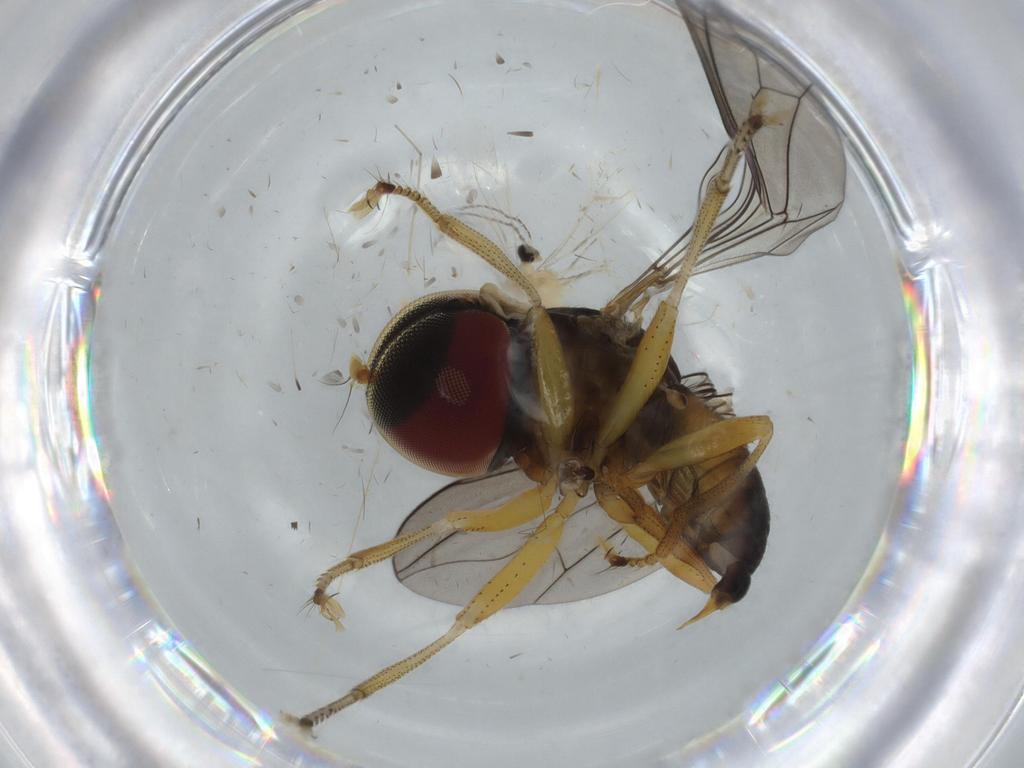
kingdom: Animalia
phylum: Arthropoda
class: Insecta
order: Diptera
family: Pipunculidae
